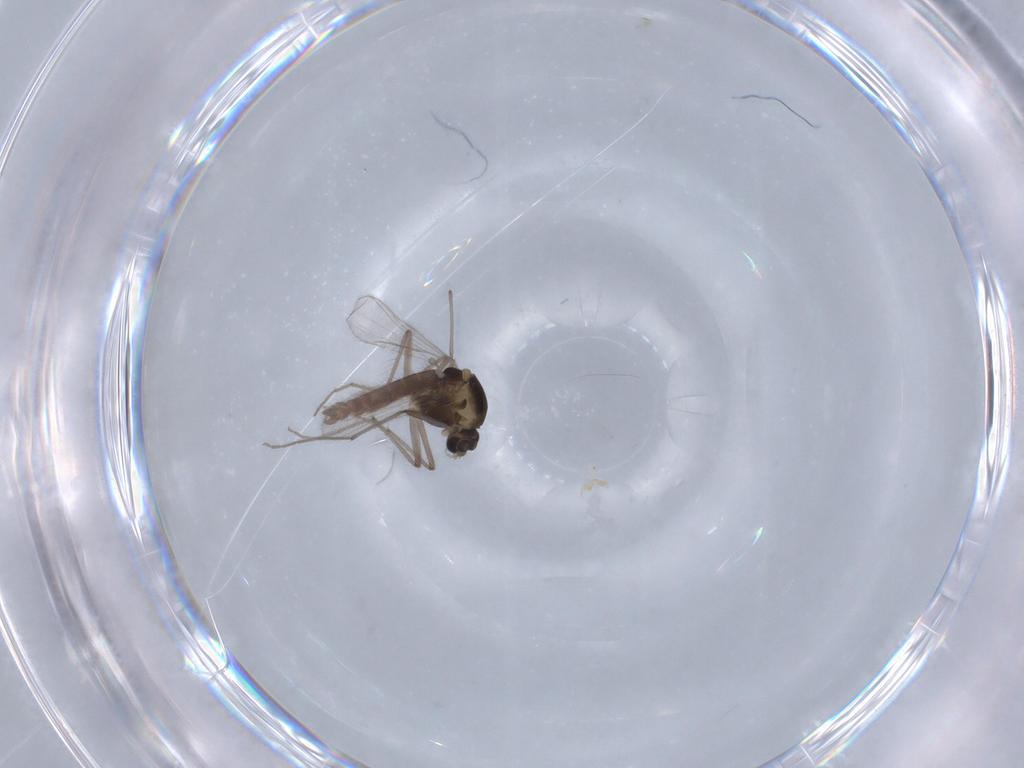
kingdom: Animalia
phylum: Arthropoda
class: Insecta
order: Diptera
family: Chironomidae
